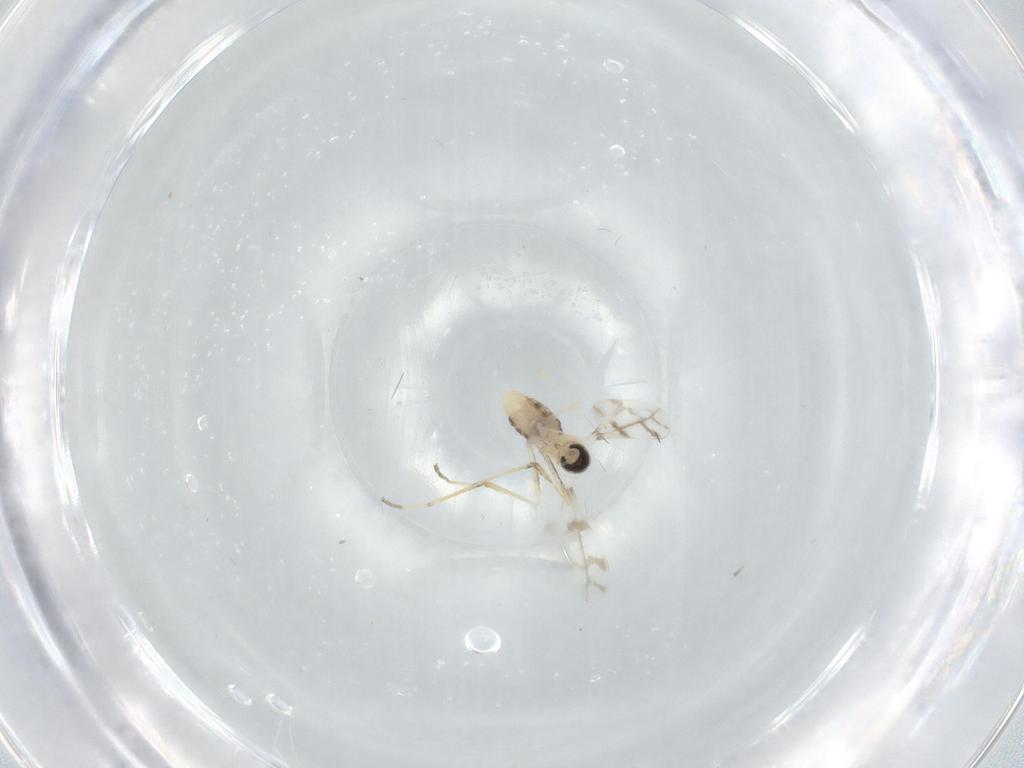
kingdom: Animalia
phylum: Arthropoda
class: Insecta
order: Diptera
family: Cecidomyiidae
